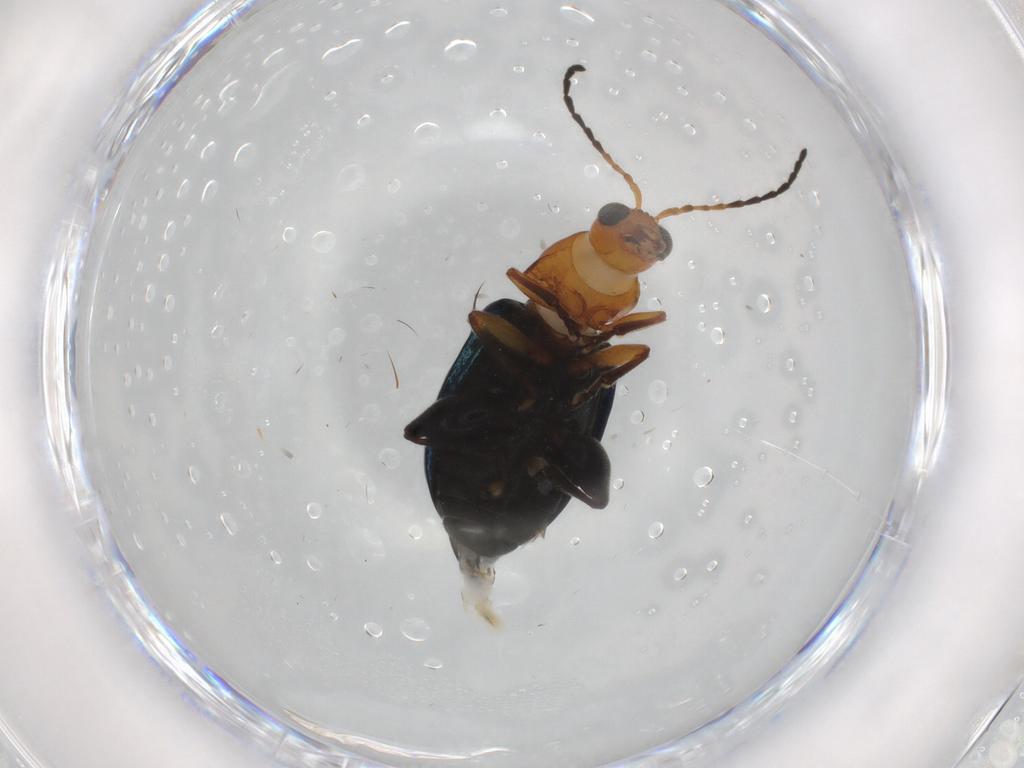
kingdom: Animalia
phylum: Arthropoda
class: Insecta
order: Coleoptera
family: Chrysomelidae
